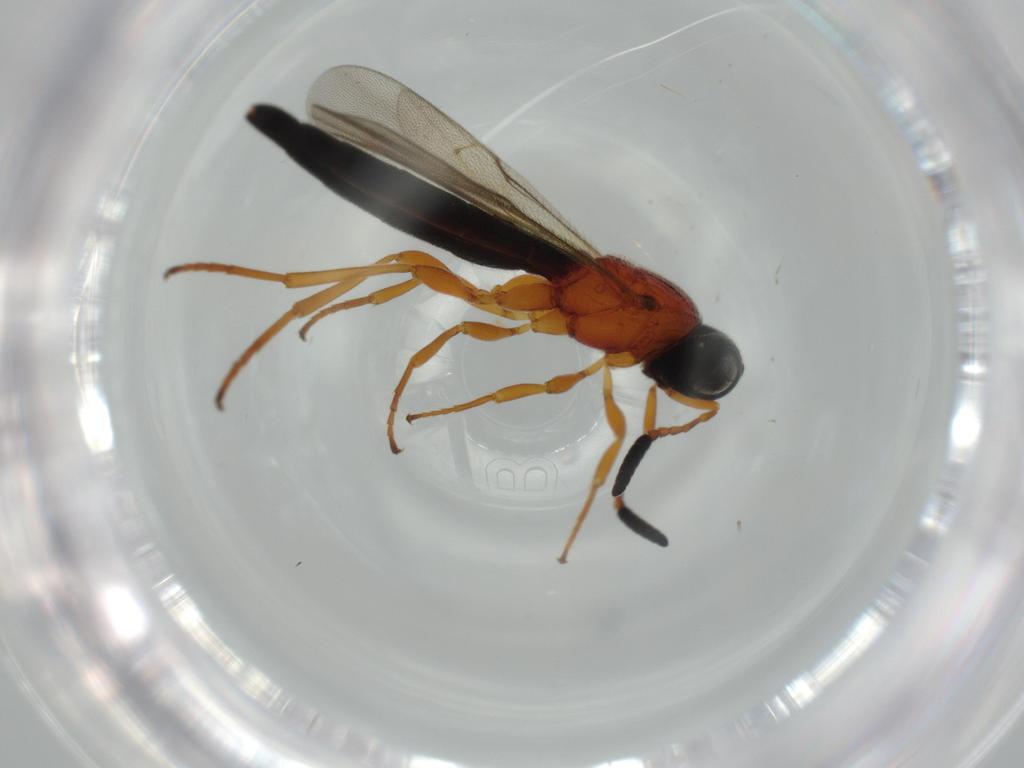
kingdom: Animalia
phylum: Arthropoda
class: Insecta
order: Hymenoptera
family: Scelionidae
